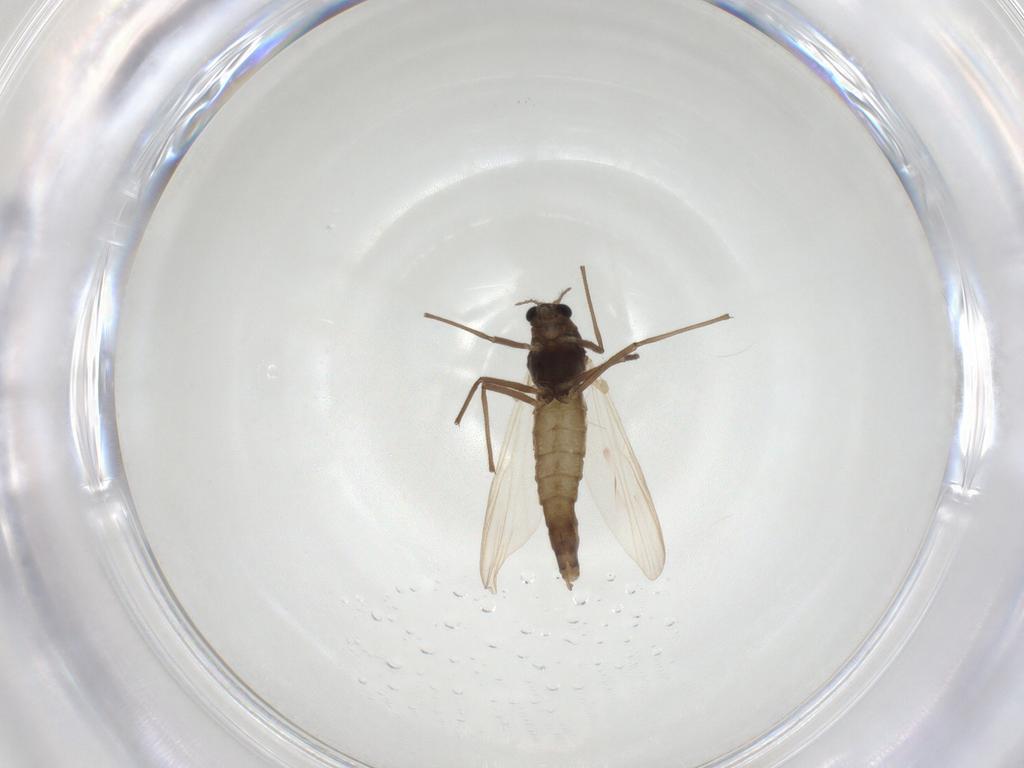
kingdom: Animalia
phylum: Arthropoda
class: Insecta
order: Diptera
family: Chironomidae
